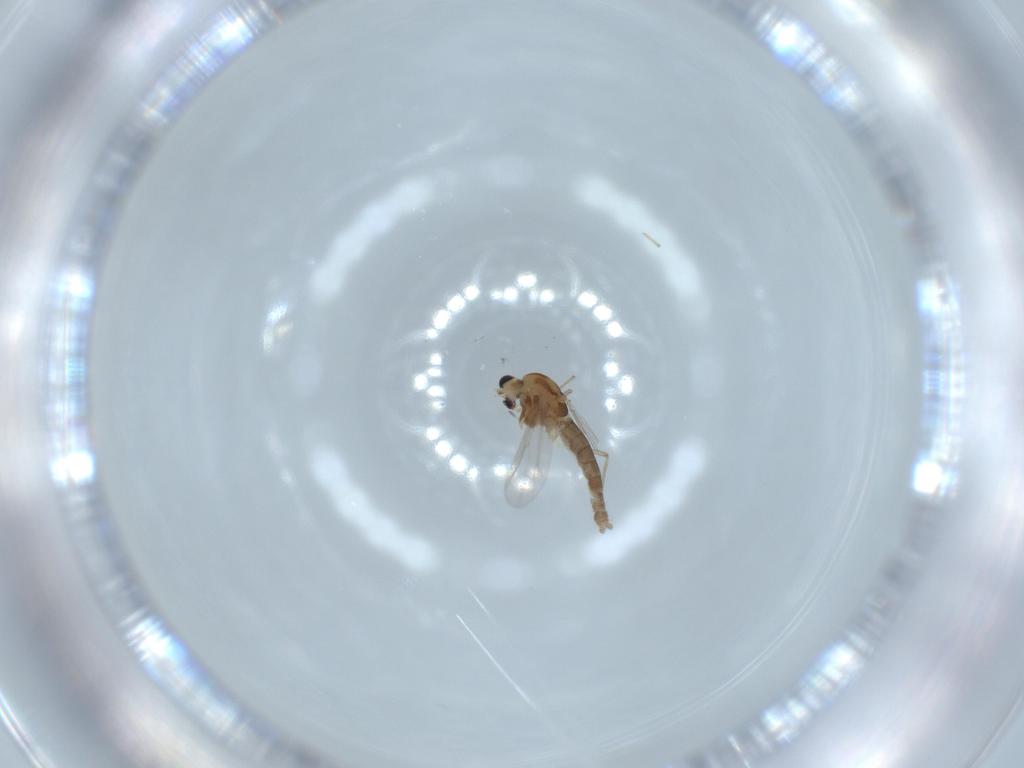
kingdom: Animalia
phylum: Arthropoda
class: Insecta
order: Diptera
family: Chironomidae
